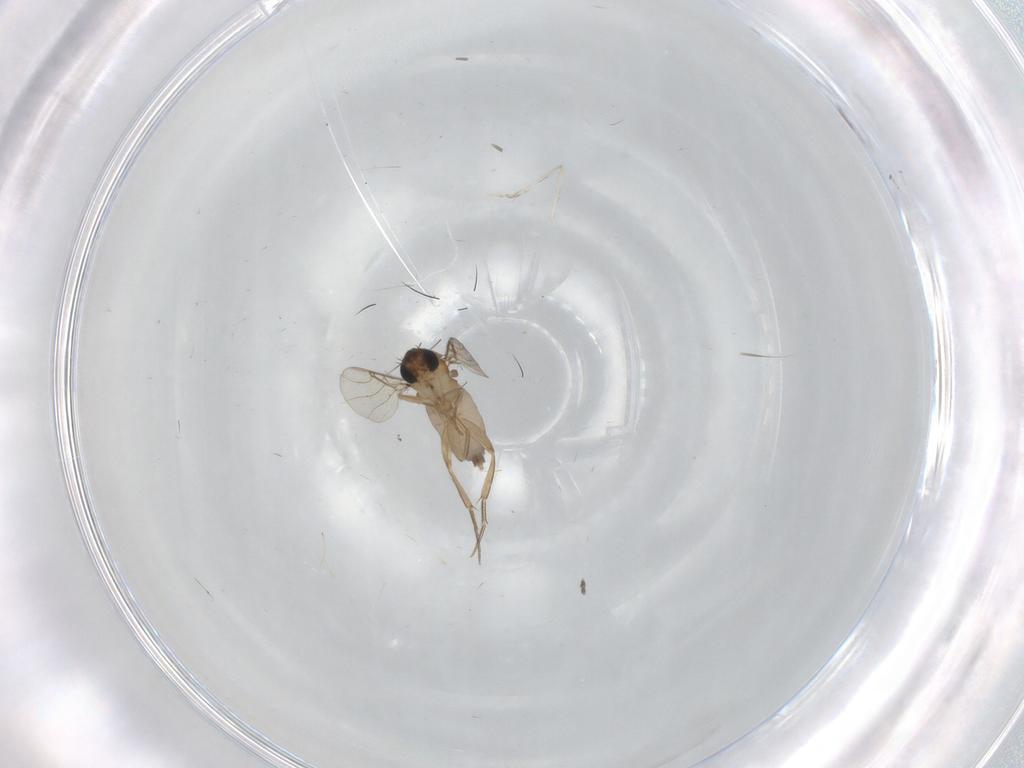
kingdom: Animalia
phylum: Arthropoda
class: Insecta
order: Diptera
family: Phoridae
